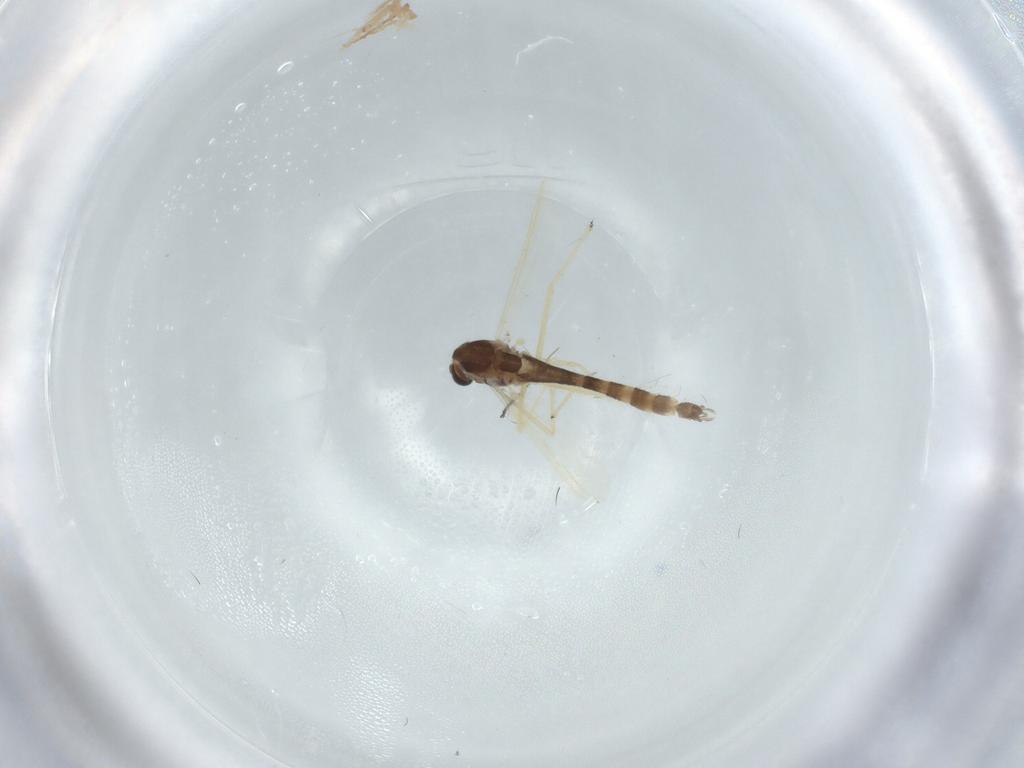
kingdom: Animalia
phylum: Arthropoda
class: Insecta
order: Diptera
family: Chironomidae
